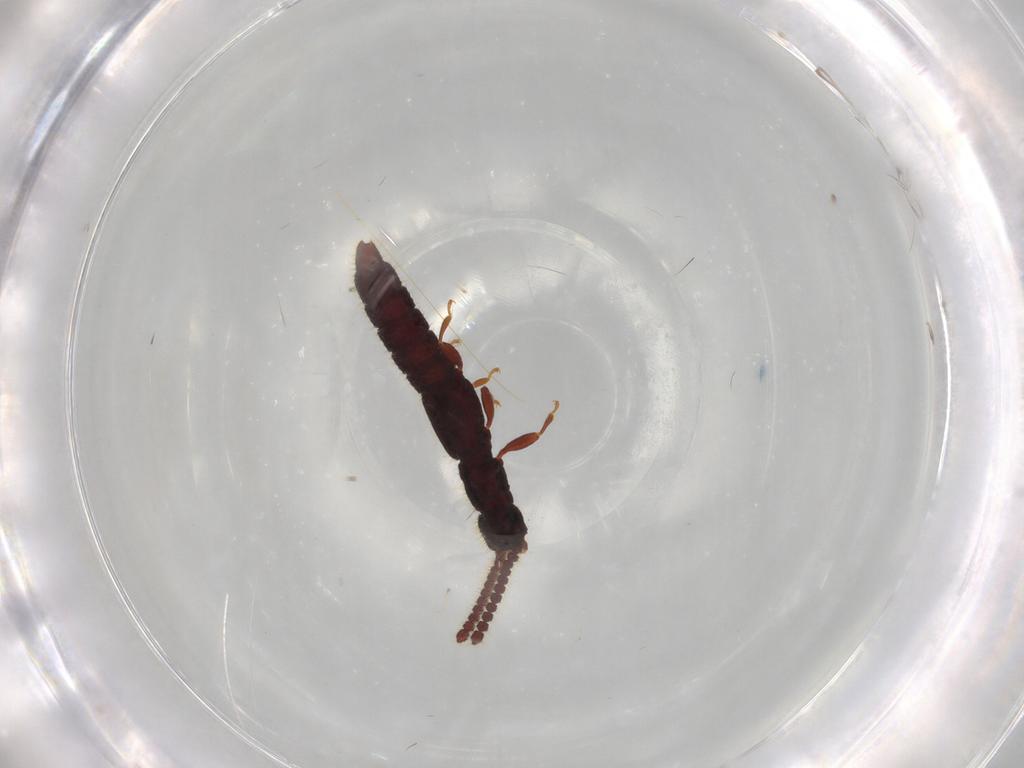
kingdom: Animalia
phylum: Arthropoda
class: Insecta
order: Coleoptera
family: Staphylinidae
